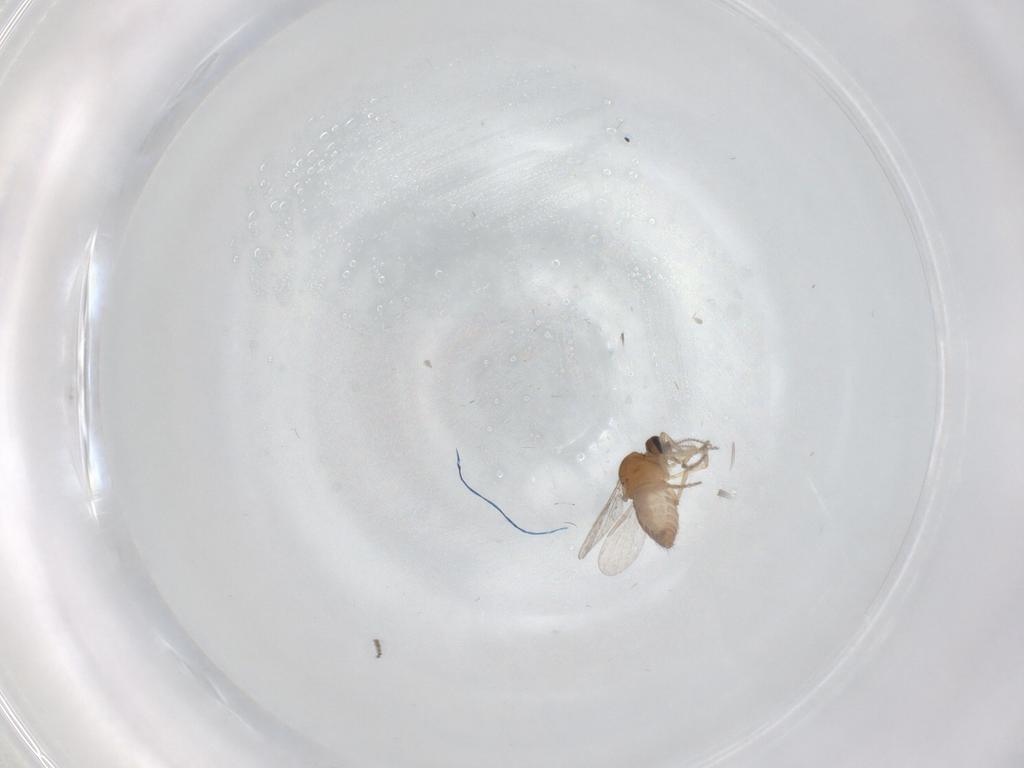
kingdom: Animalia
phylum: Arthropoda
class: Insecta
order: Diptera
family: Ceratopogonidae
